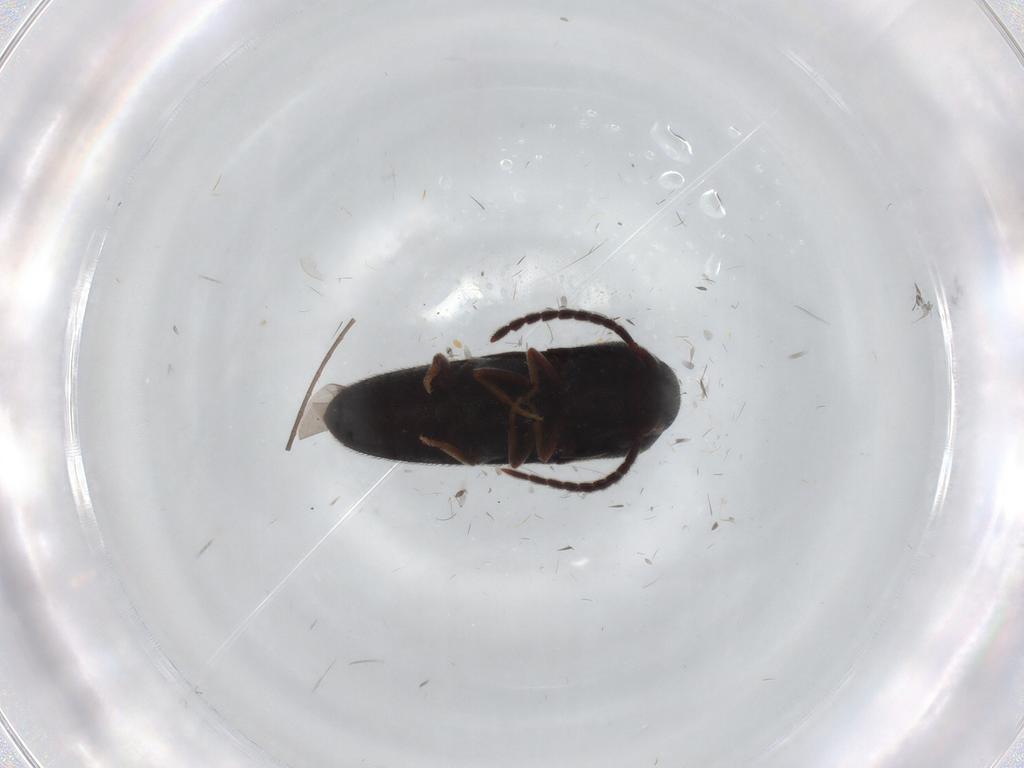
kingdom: Animalia
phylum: Arthropoda
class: Insecta
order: Coleoptera
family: Eucnemidae
